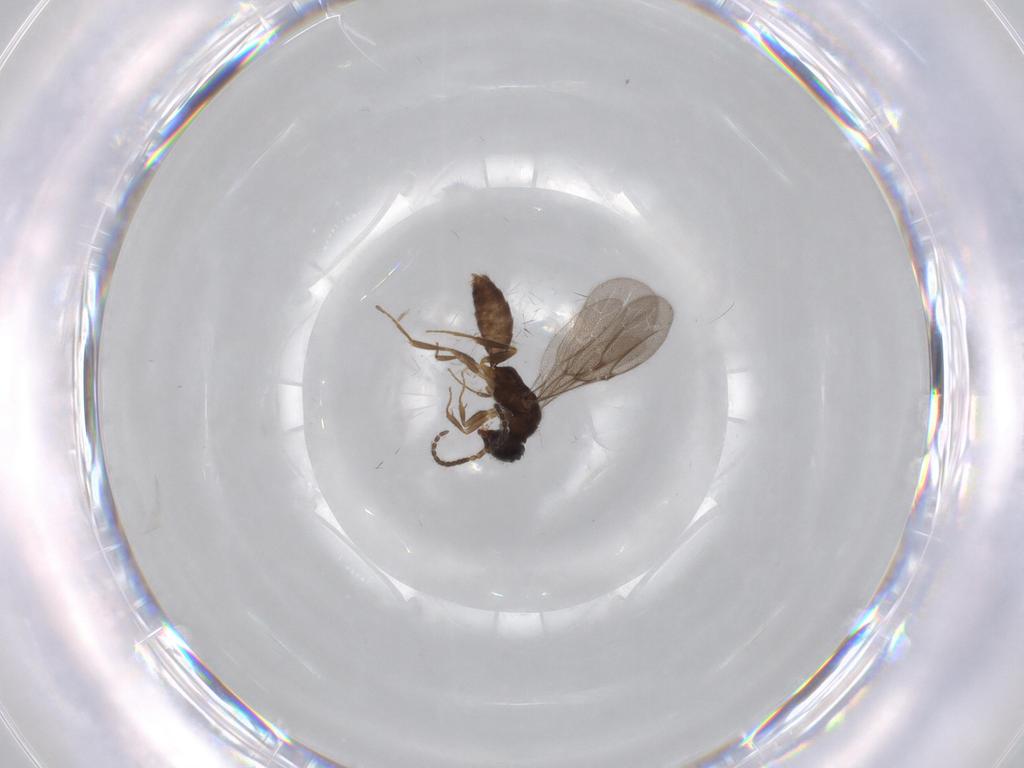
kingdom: Animalia
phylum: Arthropoda
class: Insecta
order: Hymenoptera
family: Bethylidae
